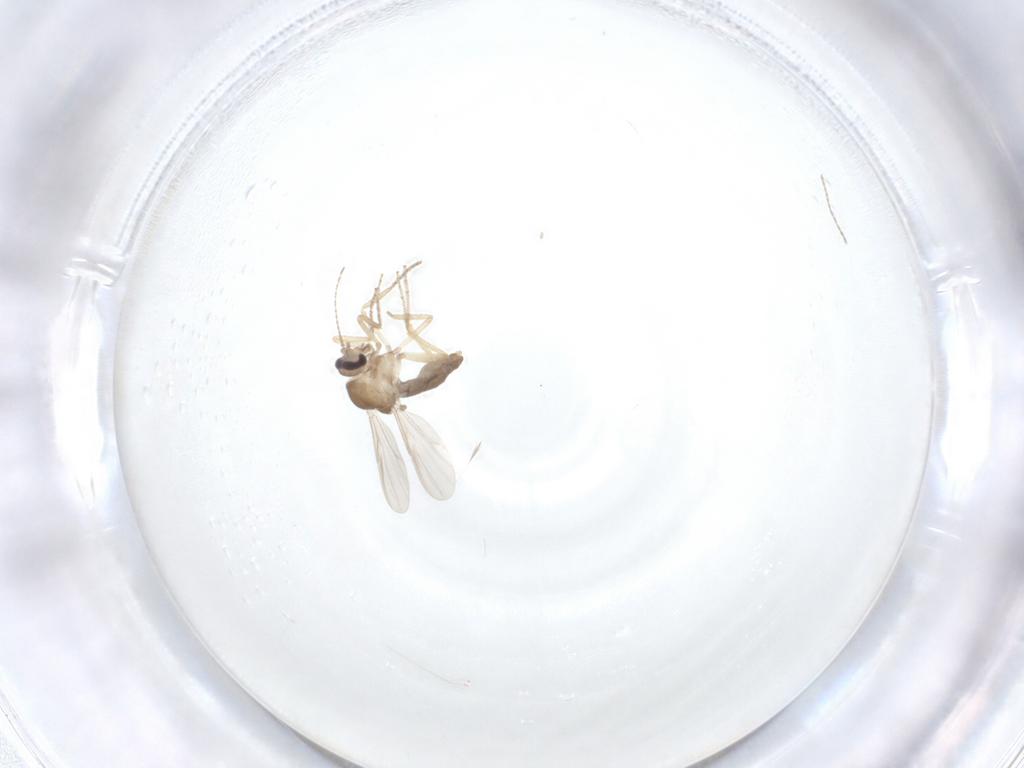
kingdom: Animalia
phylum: Arthropoda
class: Insecta
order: Diptera
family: Ceratopogonidae
